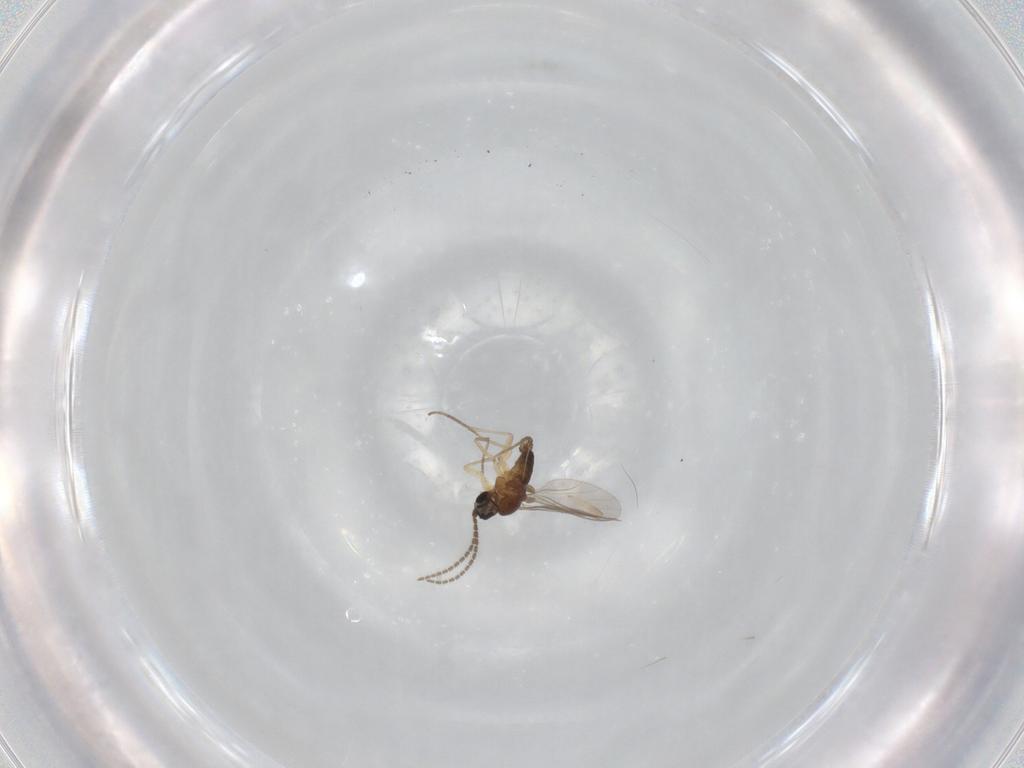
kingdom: Animalia
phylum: Arthropoda
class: Insecta
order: Diptera
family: Sciaridae
